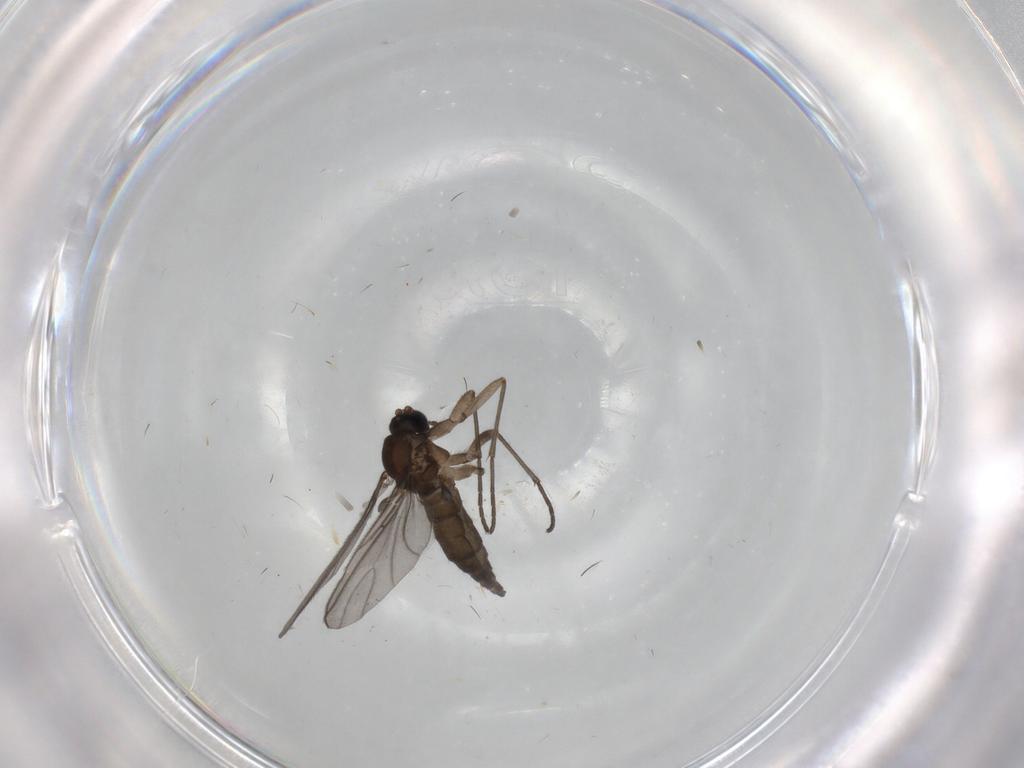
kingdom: Animalia
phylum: Arthropoda
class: Insecta
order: Diptera
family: Sciaridae
